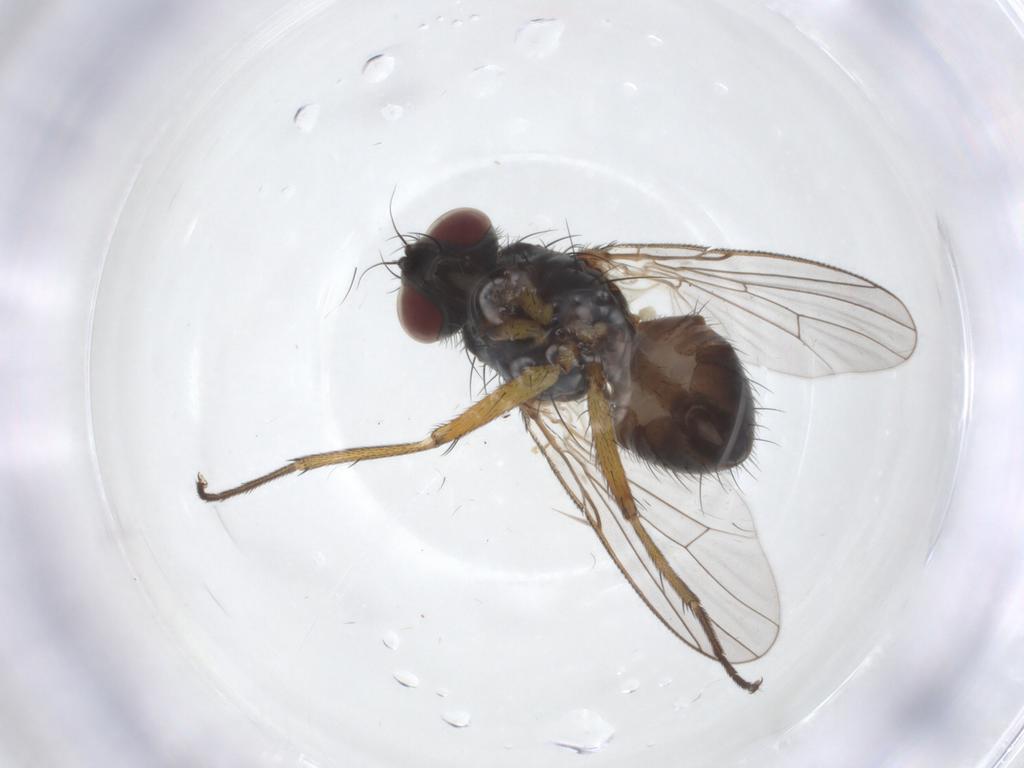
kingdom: Animalia
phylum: Arthropoda
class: Insecta
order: Diptera
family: Muscidae
